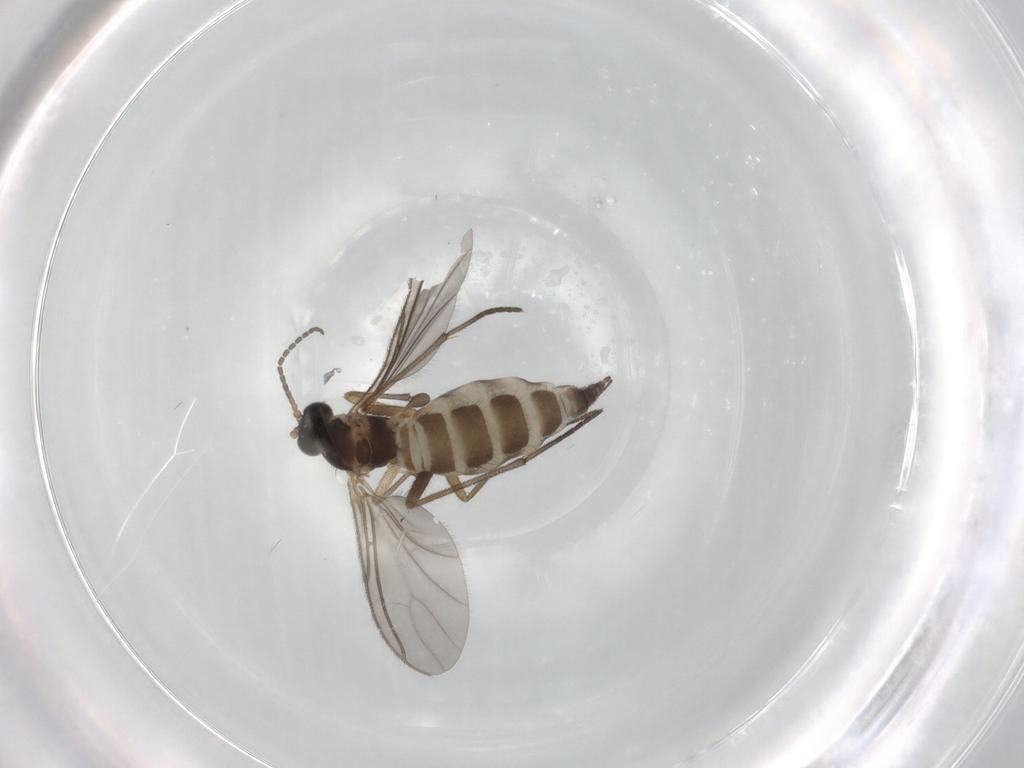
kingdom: Animalia
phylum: Arthropoda
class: Insecta
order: Diptera
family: Sciaridae
